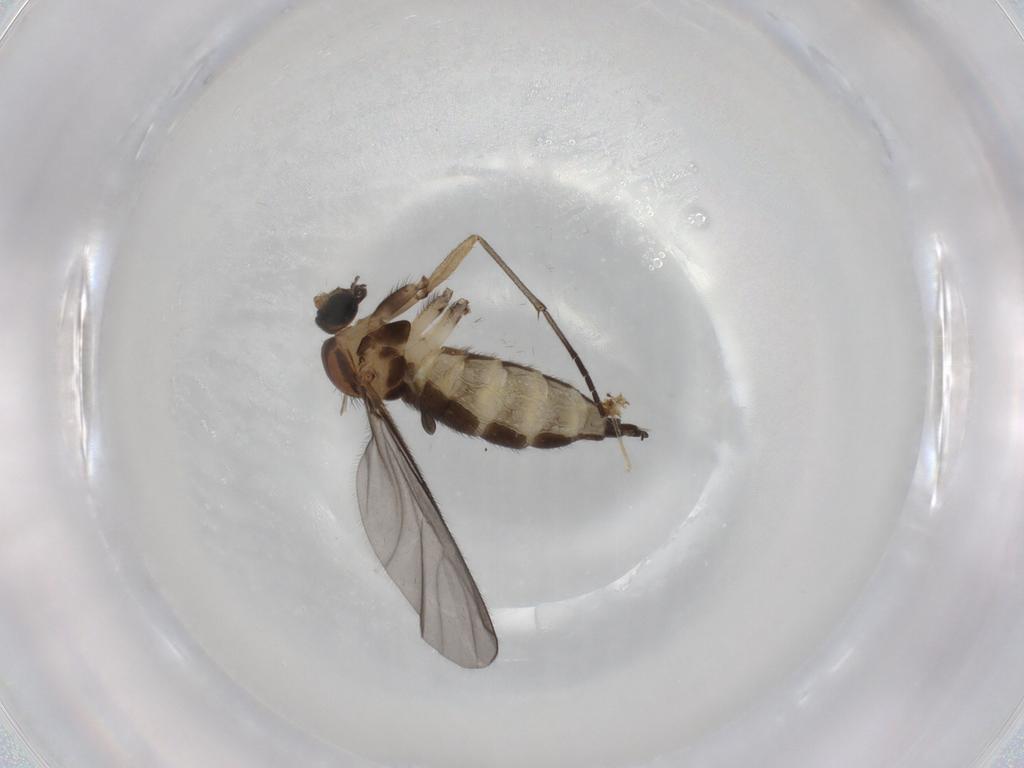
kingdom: Animalia
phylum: Arthropoda
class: Insecta
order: Diptera
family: Sciaridae
